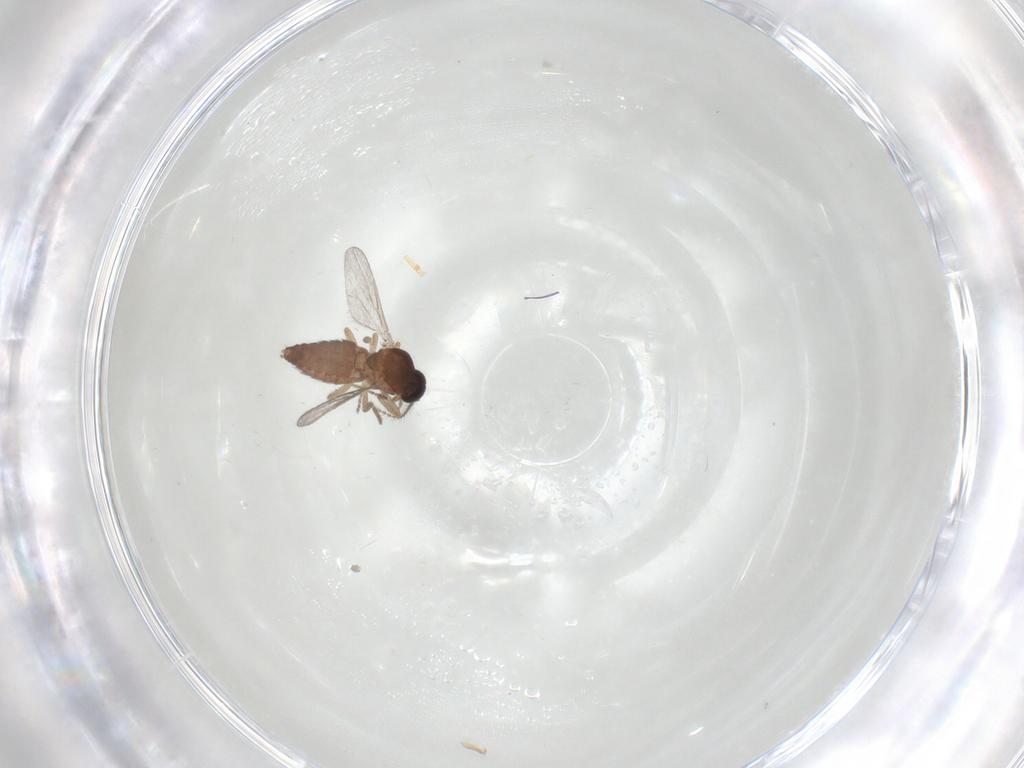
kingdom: Animalia
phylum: Arthropoda
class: Insecta
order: Diptera
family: Ceratopogonidae
